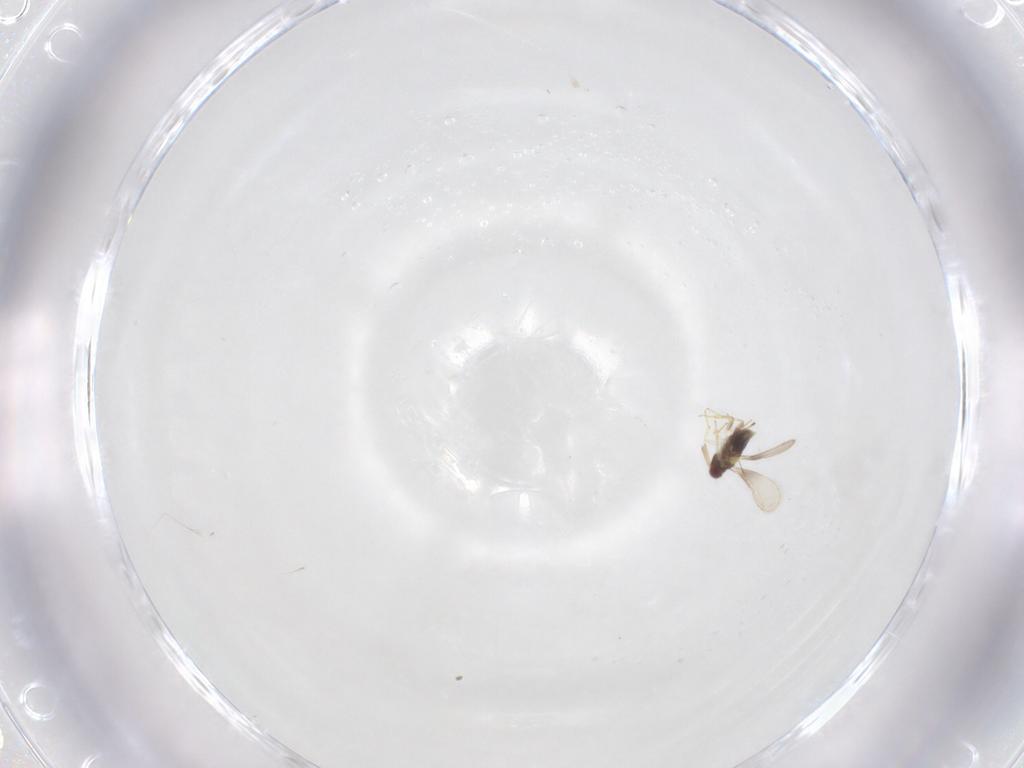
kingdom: Animalia
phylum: Arthropoda
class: Insecta
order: Hymenoptera
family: Aphelinidae
